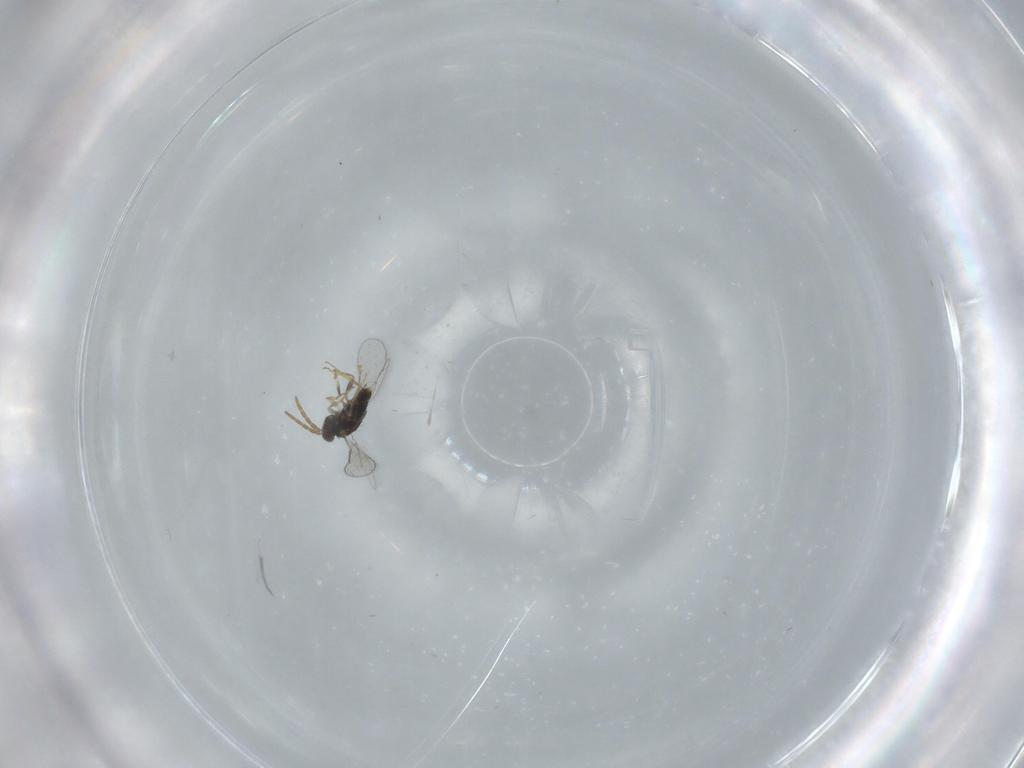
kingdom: Animalia
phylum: Arthropoda
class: Insecta
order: Hymenoptera
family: Aphelinidae
